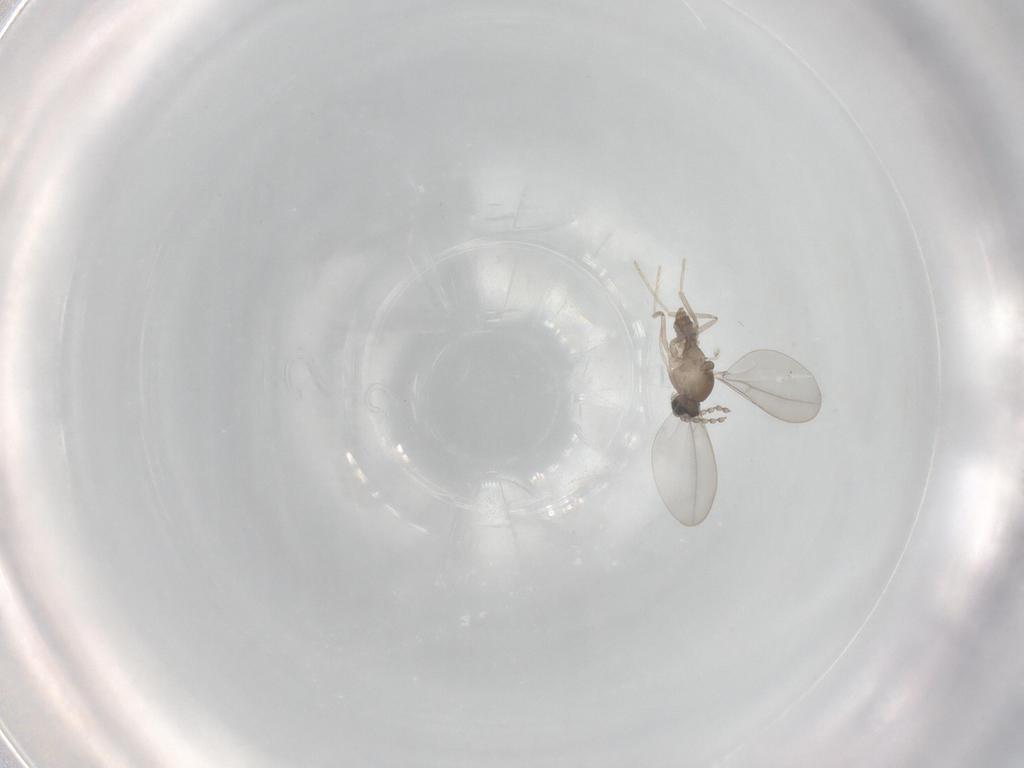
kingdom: Animalia
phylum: Arthropoda
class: Insecta
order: Diptera
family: Cecidomyiidae
